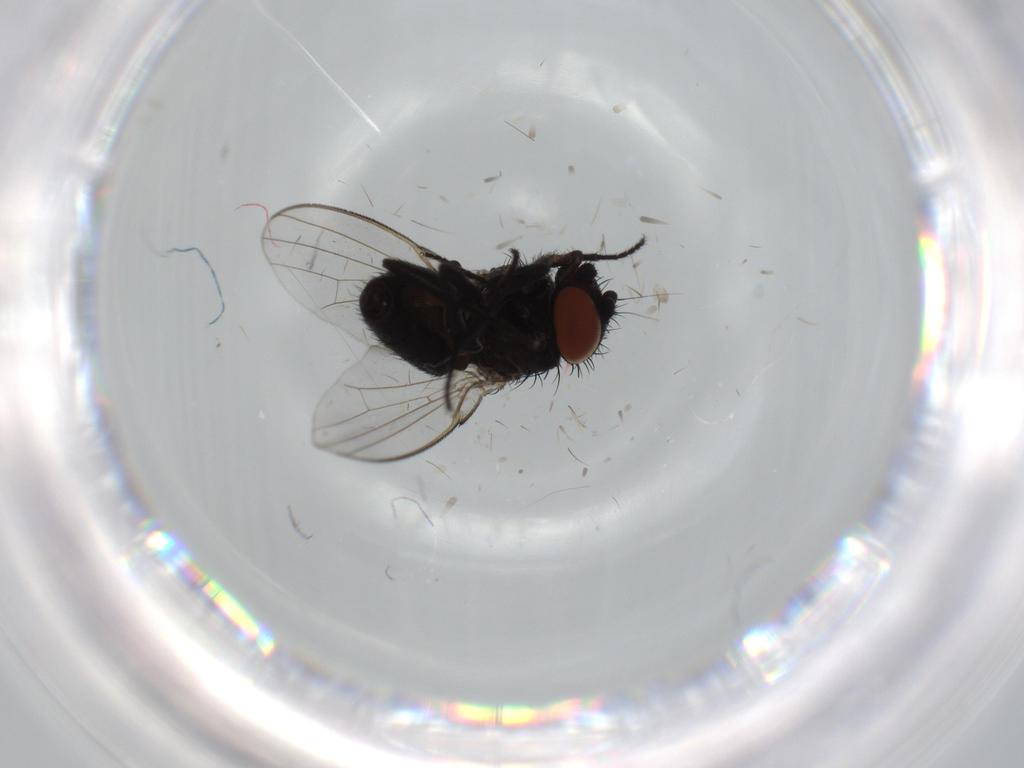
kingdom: Animalia
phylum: Arthropoda
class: Insecta
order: Diptera
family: Milichiidae
